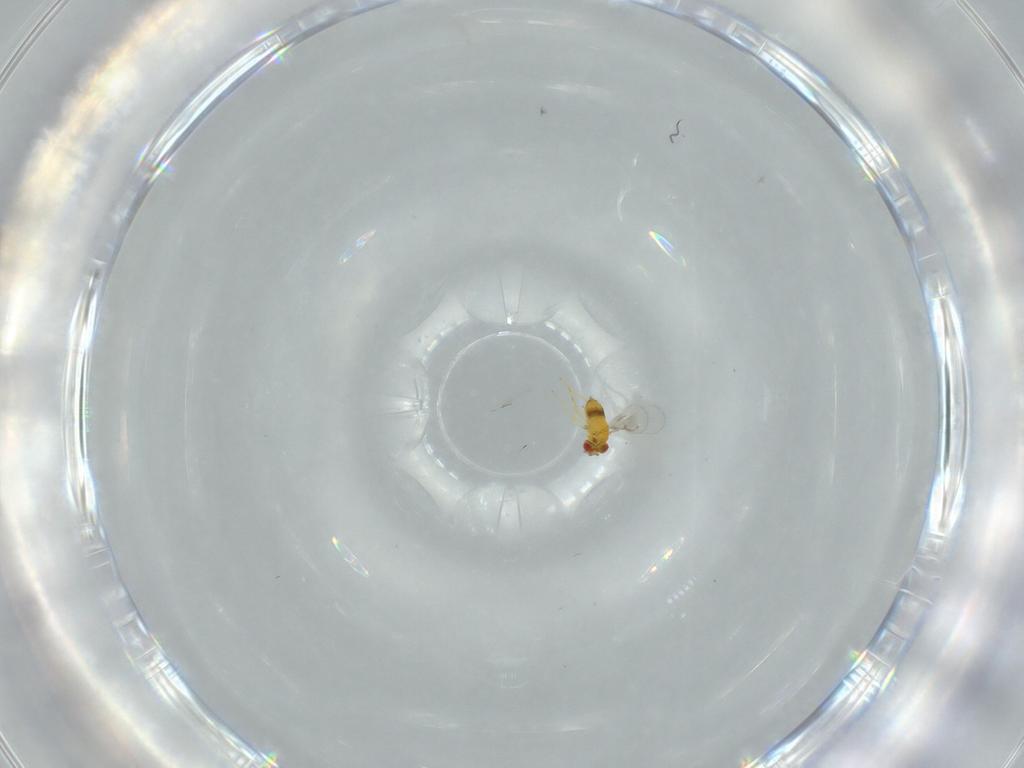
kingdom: Animalia
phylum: Arthropoda
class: Insecta
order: Hymenoptera
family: Trichogrammatidae
